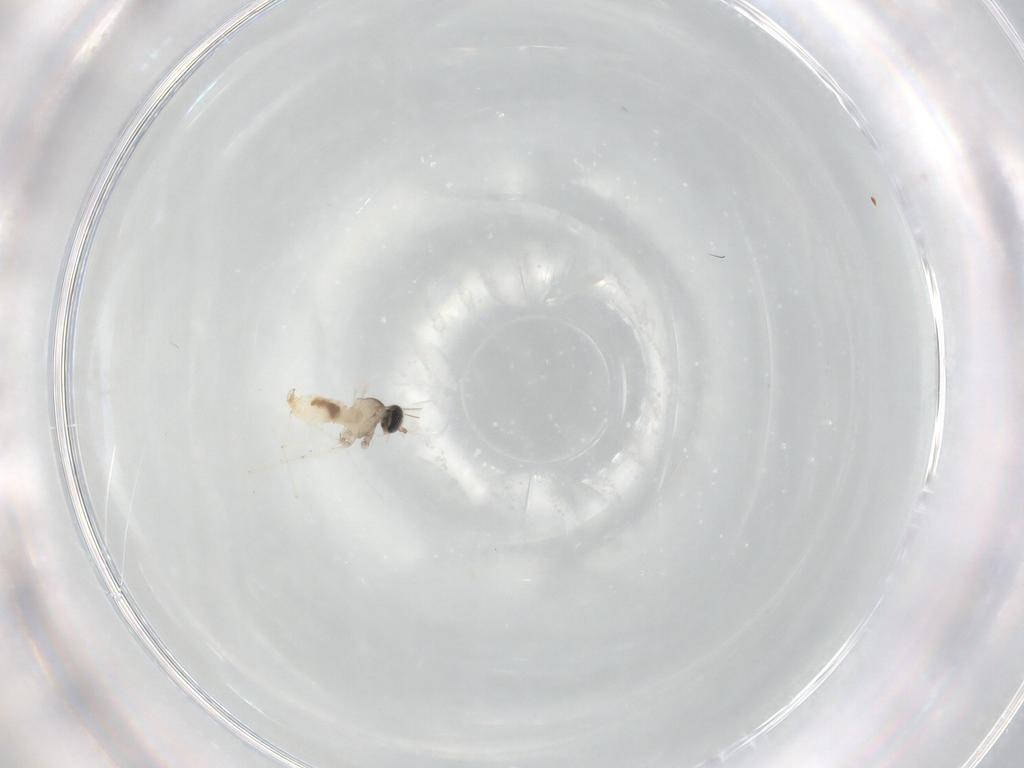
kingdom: Animalia
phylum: Arthropoda
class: Insecta
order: Diptera
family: Cecidomyiidae
